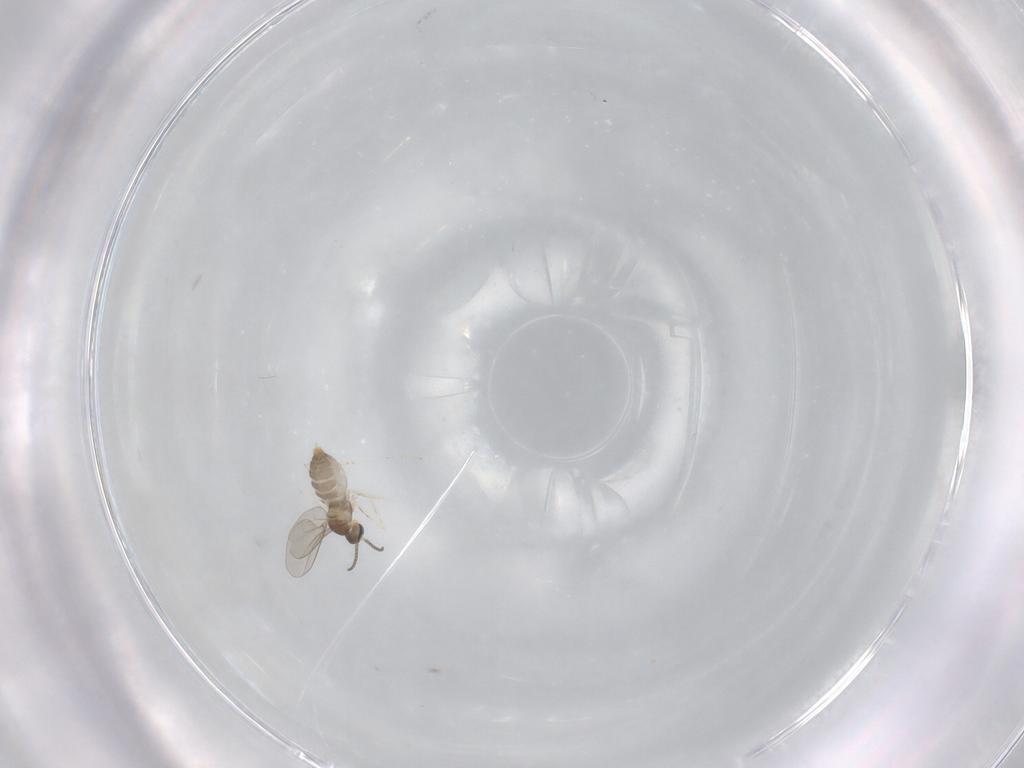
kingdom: Animalia
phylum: Arthropoda
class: Insecta
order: Diptera
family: Cecidomyiidae
